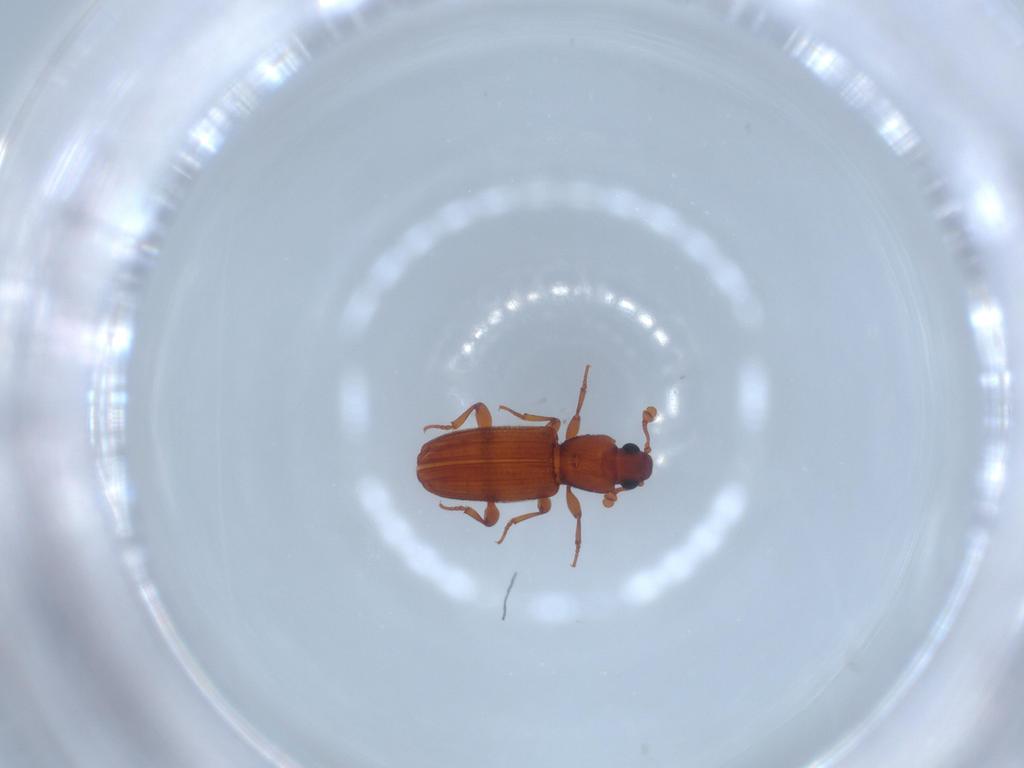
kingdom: Animalia
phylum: Arthropoda
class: Insecta
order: Coleoptera
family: Bothrideridae
